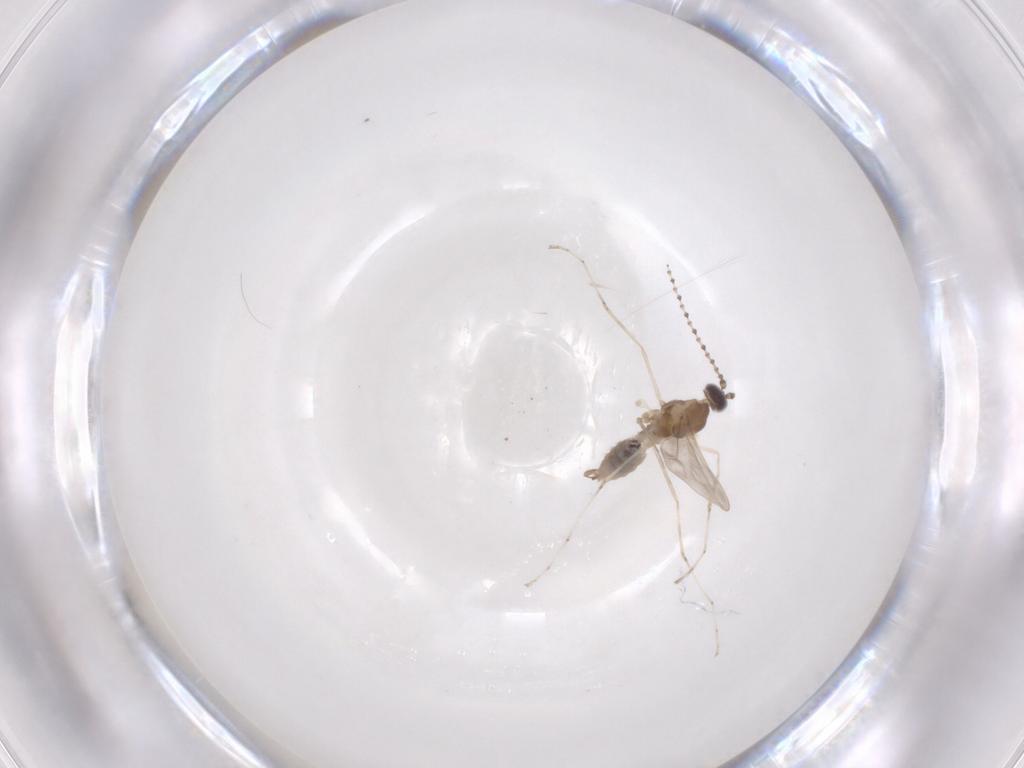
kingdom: Animalia
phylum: Arthropoda
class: Insecta
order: Diptera
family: Cecidomyiidae
